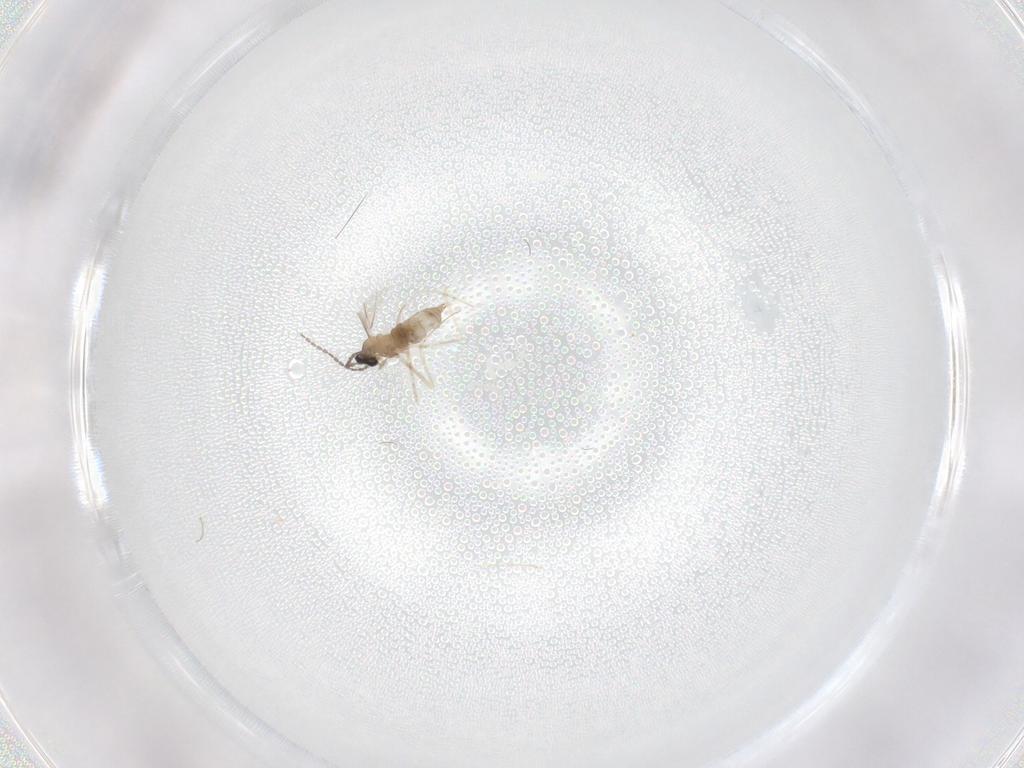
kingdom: Animalia
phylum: Arthropoda
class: Insecta
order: Diptera
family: Cecidomyiidae
